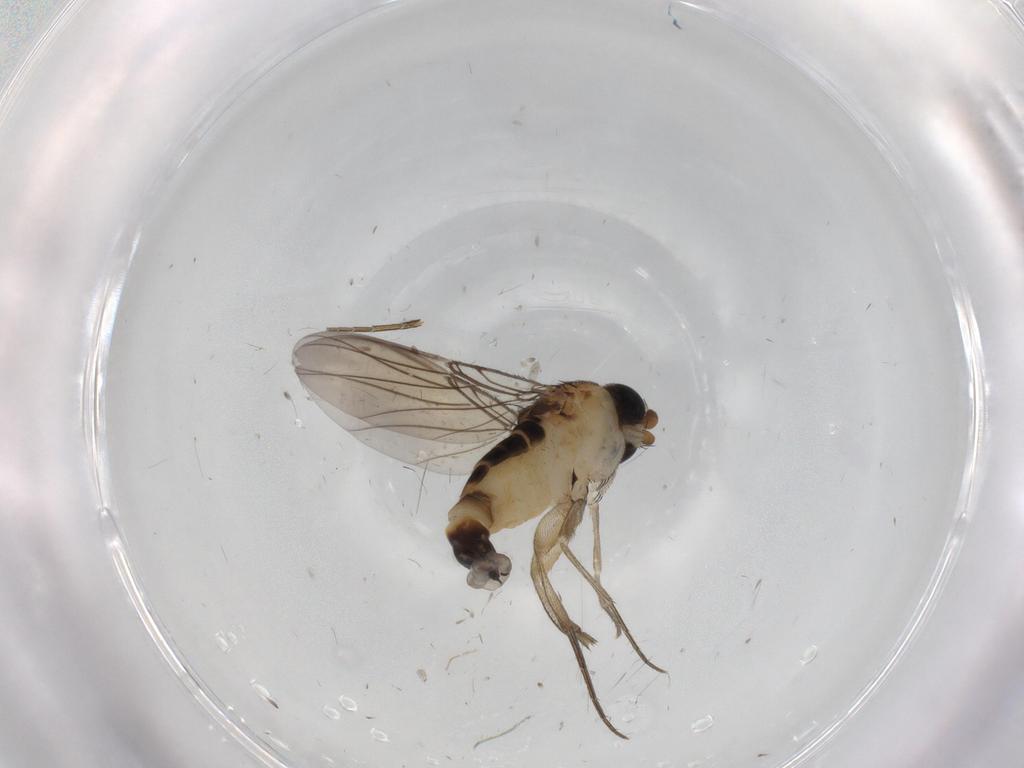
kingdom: Animalia
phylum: Arthropoda
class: Insecta
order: Diptera
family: Phoridae
